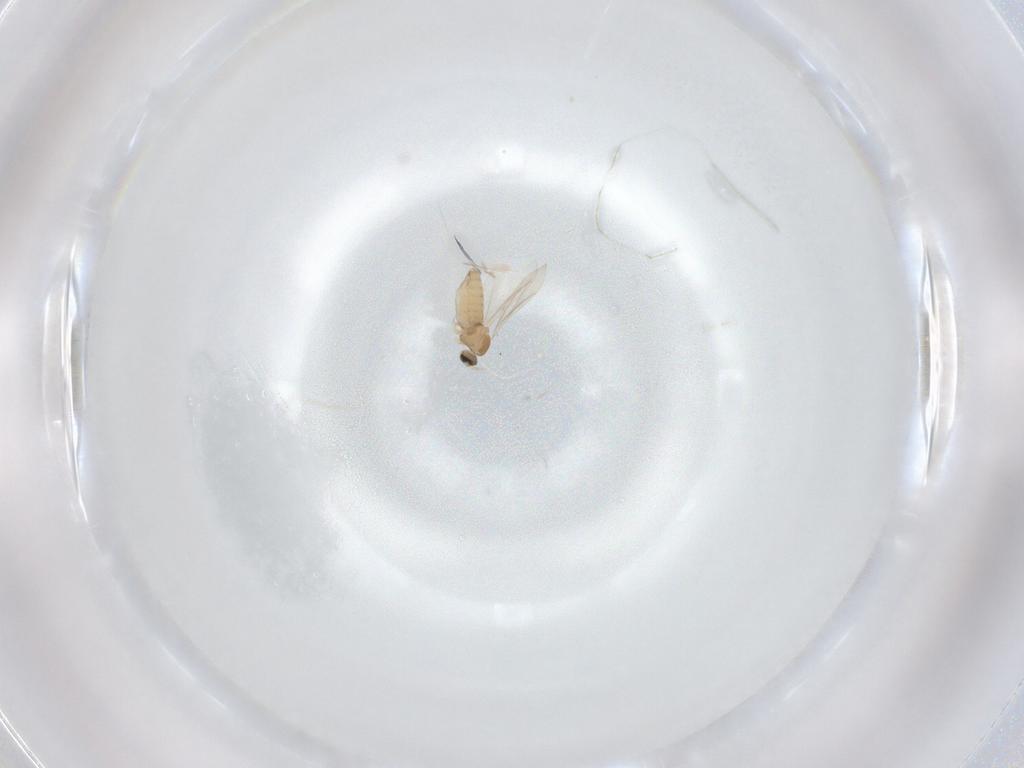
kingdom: Animalia
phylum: Arthropoda
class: Insecta
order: Diptera
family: Cecidomyiidae
